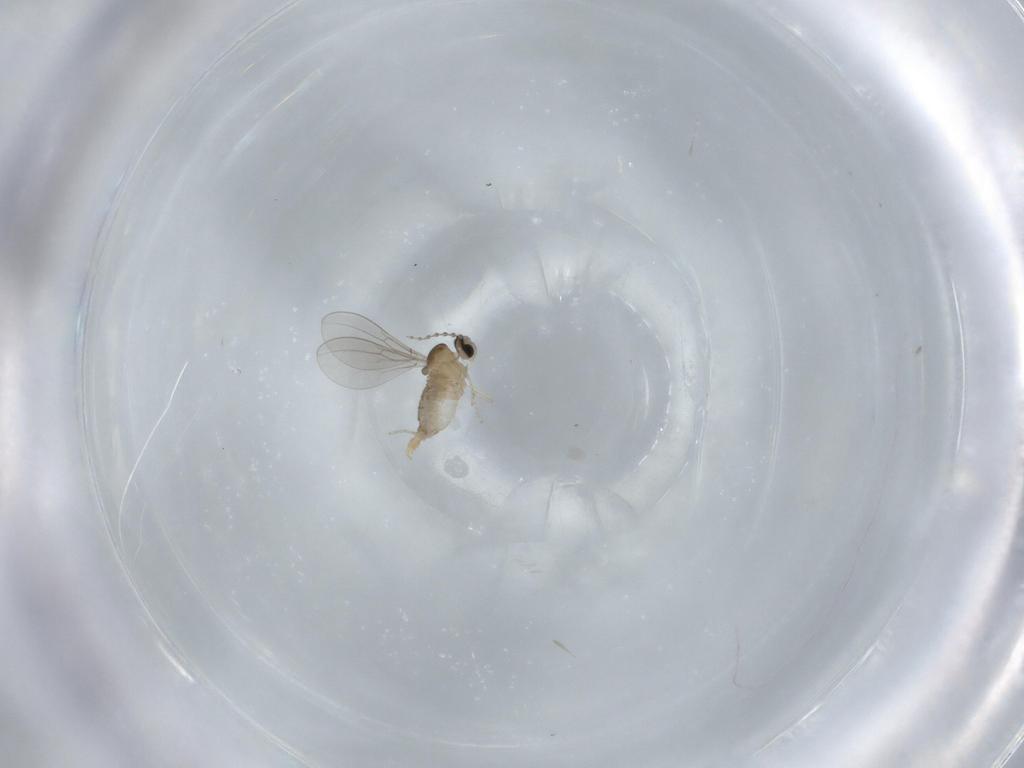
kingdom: Animalia
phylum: Arthropoda
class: Insecta
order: Diptera
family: Cecidomyiidae
